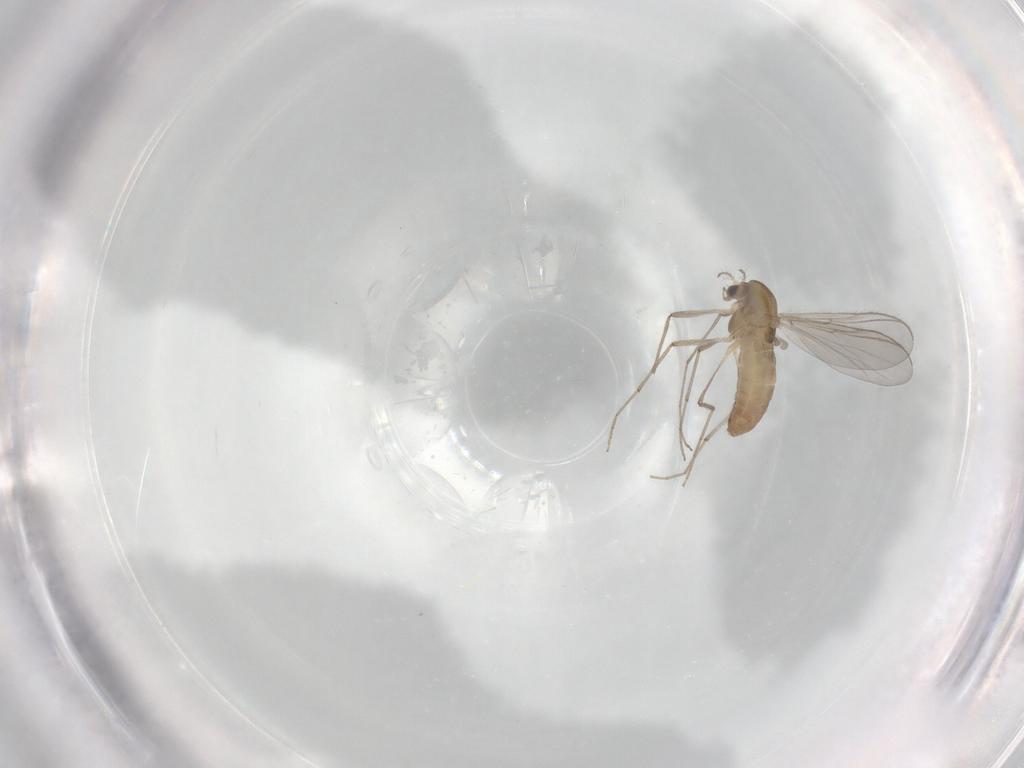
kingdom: Animalia
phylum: Arthropoda
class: Insecta
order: Diptera
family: Chironomidae
